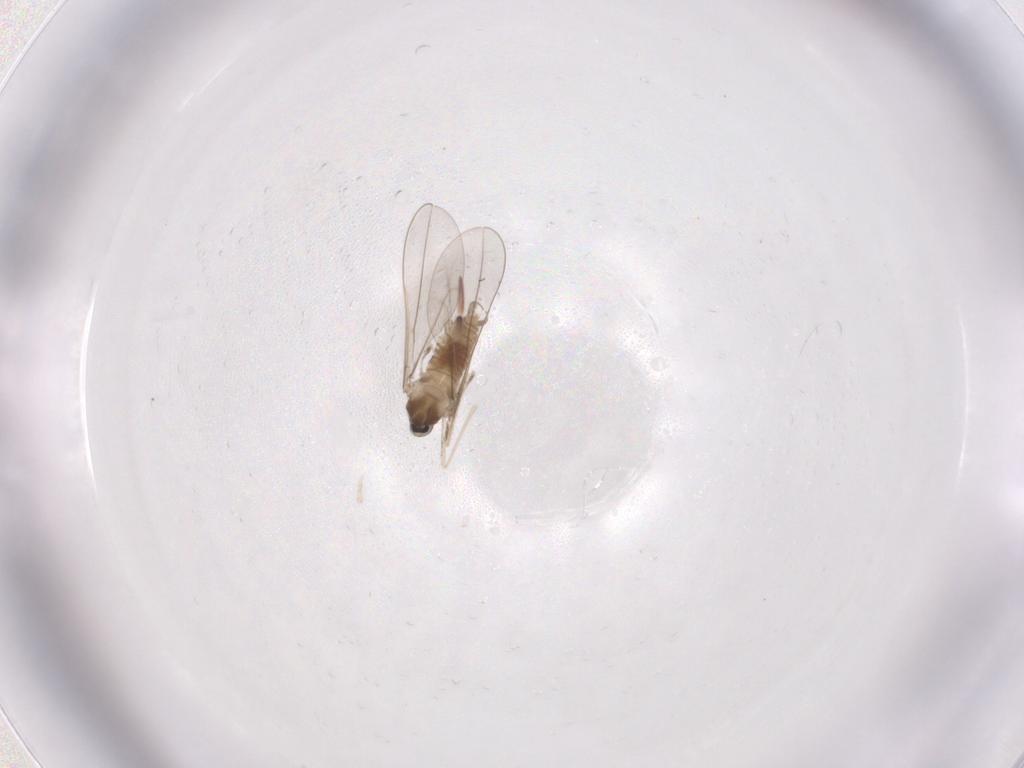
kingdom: Animalia
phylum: Arthropoda
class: Insecta
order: Diptera
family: Cecidomyiidae
